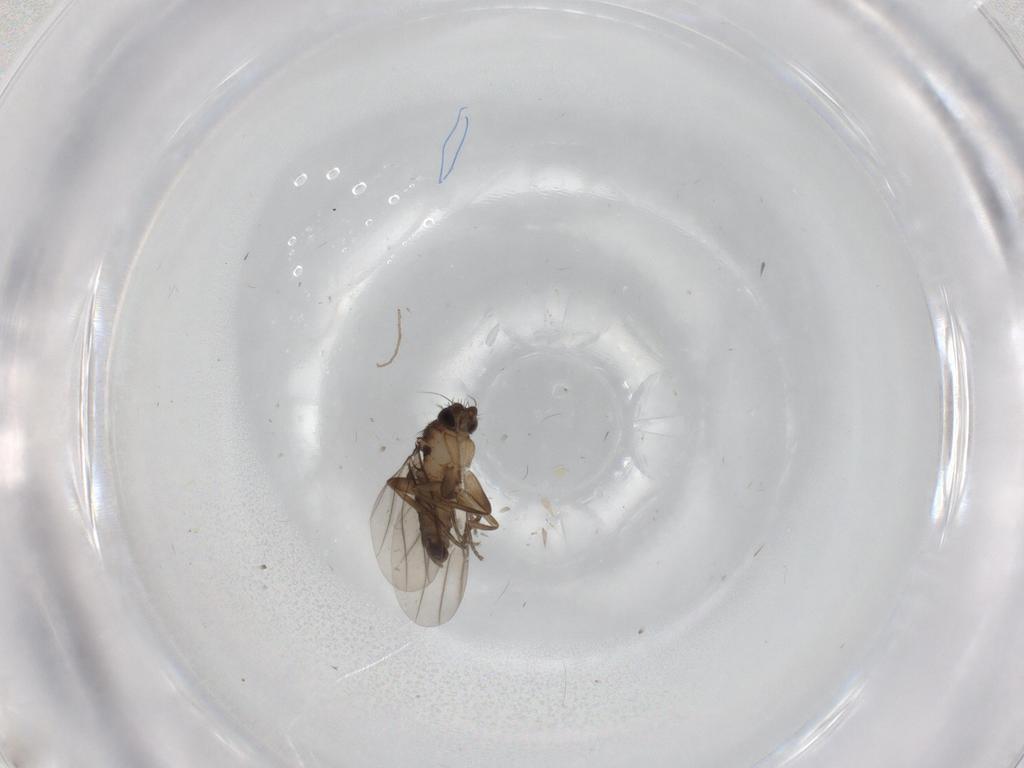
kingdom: Animalia
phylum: Arthropoda
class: Insecta
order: Diptera
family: Phoridae
